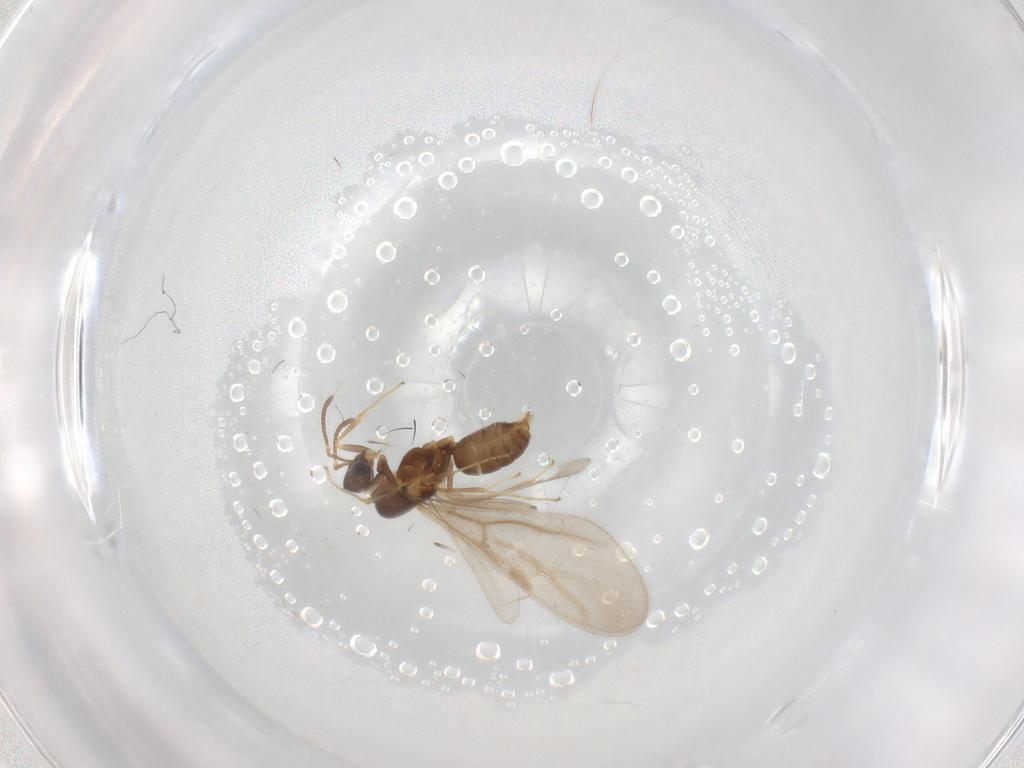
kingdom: Animalia
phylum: Arthropoda
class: Insecta
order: Hymenoptera
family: Formicidae
